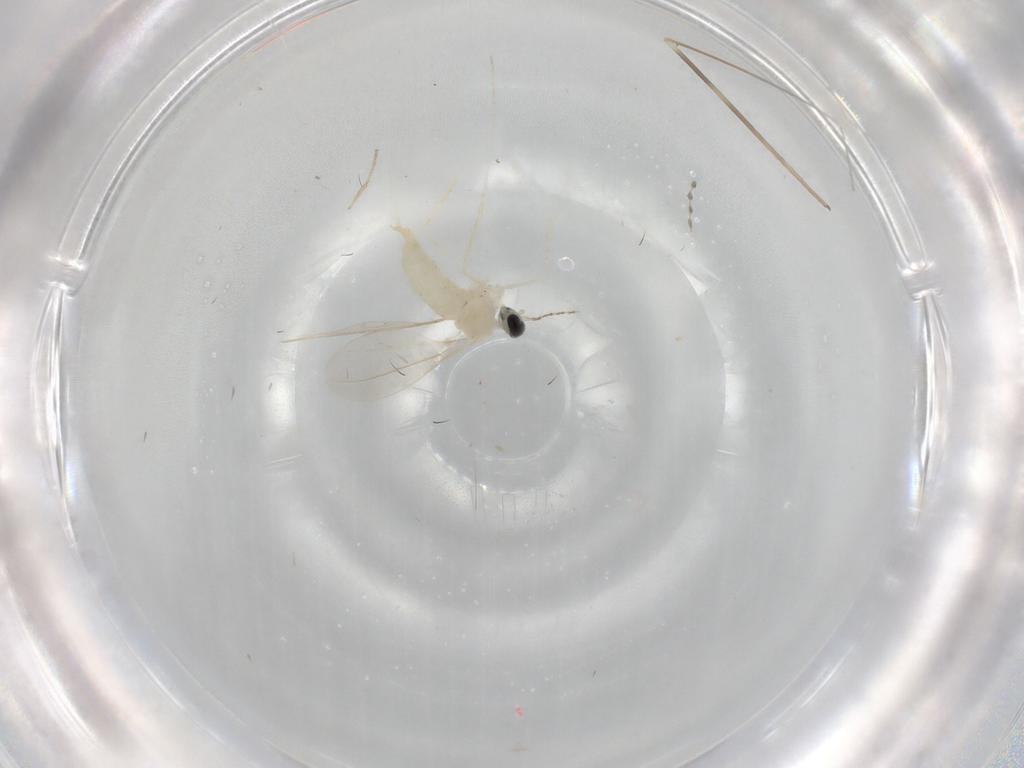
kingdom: Animalia
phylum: Arthropoda
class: Insecta
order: Diptera
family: Cecidomyiidae
